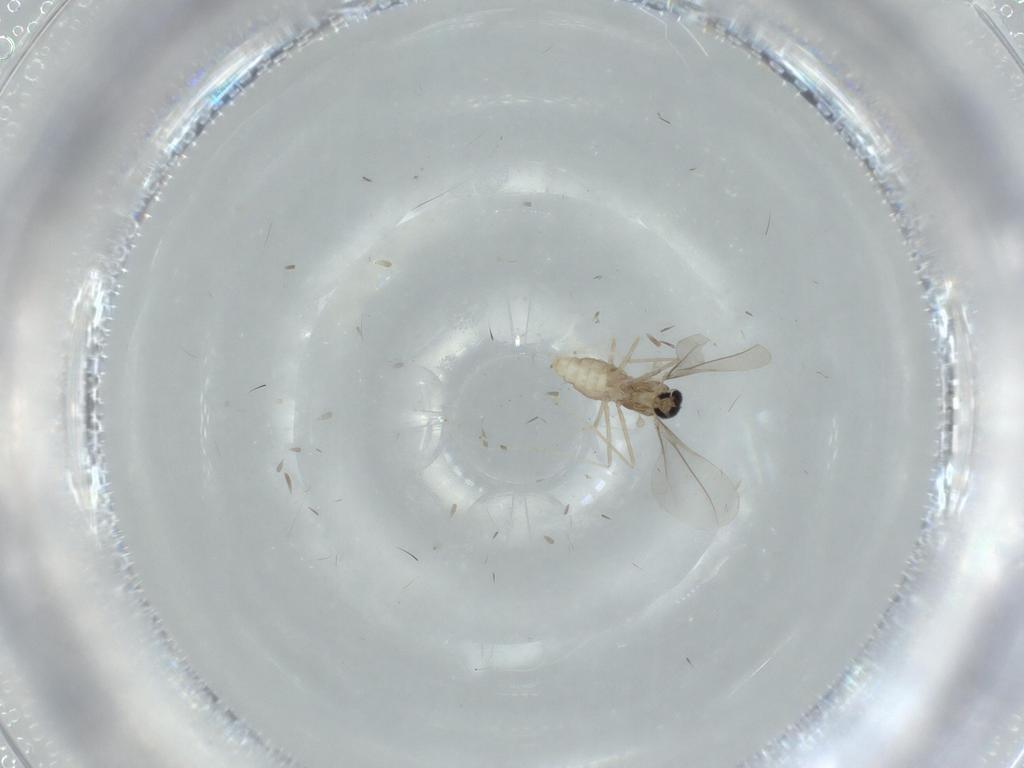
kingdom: Animalia
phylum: Arthropoda
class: Insecta
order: Diptera
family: Cecidomyiidae
